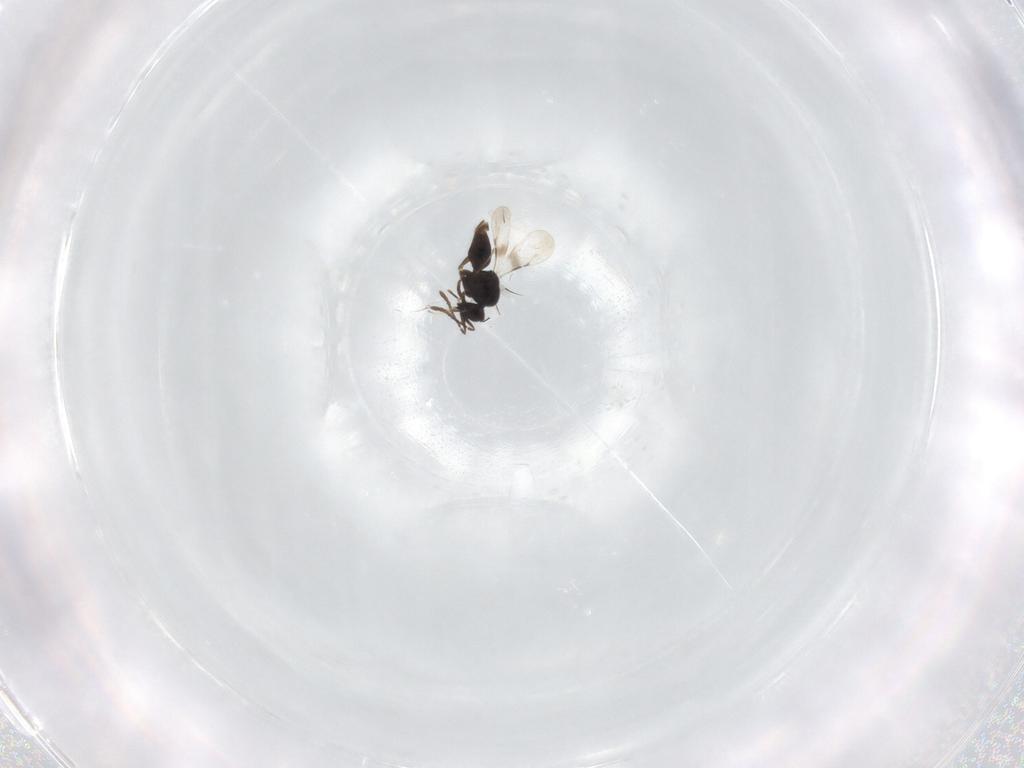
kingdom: Animalia
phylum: Arthropoda
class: Insecta
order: Hymenoptera
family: Ceraphronidae
